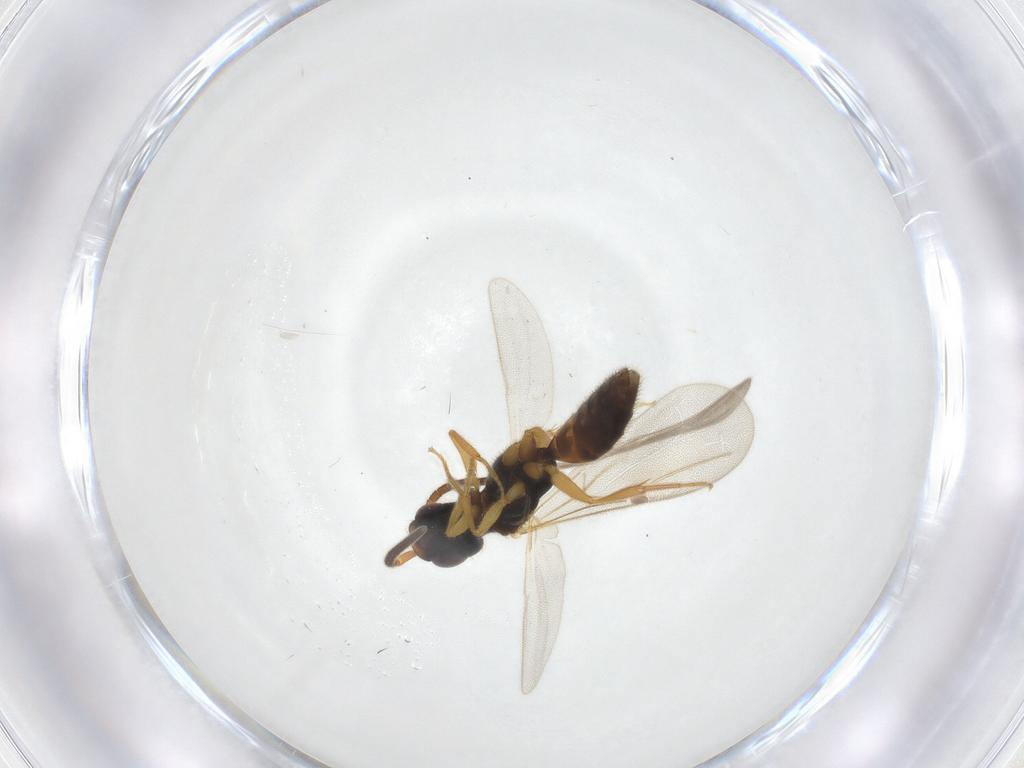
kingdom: Animalia
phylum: Arthropoda
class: Insecta
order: Hymenoptera
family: Bethylidae
